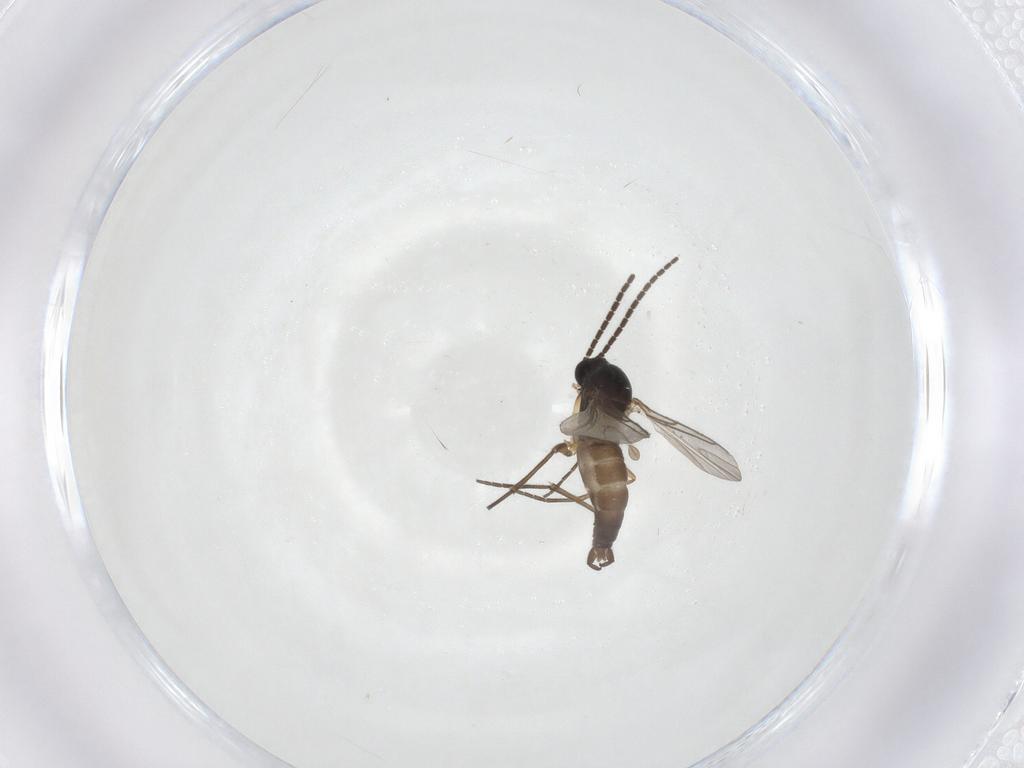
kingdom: Animalia
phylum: Arthropoda
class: Insecta
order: Diptera
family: Sciaridae
